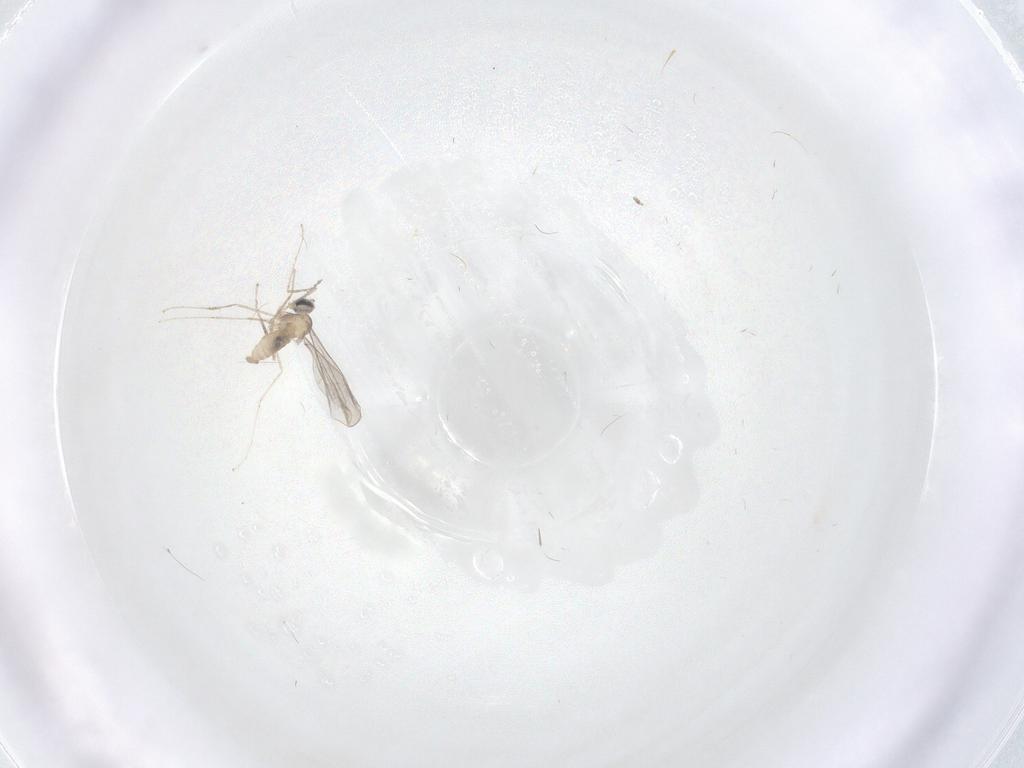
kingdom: Animalia
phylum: Arthropoda
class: Insecta
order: Diptera
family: Cecidomyiidae
